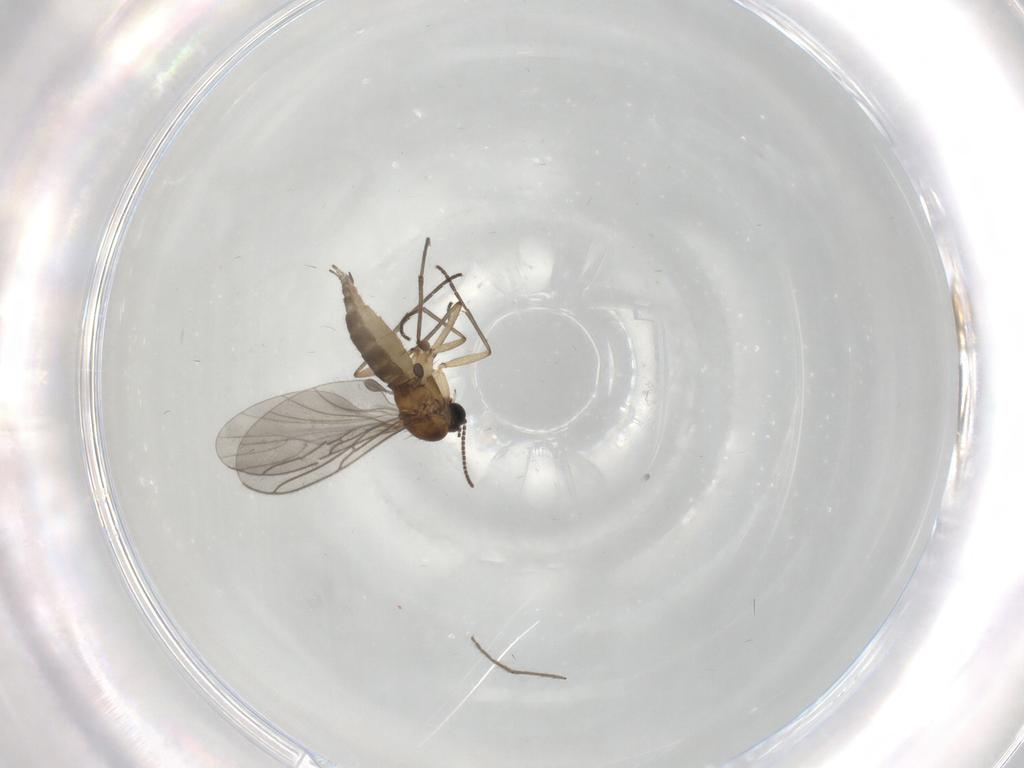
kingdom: Animalia
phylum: Arthropoda
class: Insecta
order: Diptera
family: Sciaridae
